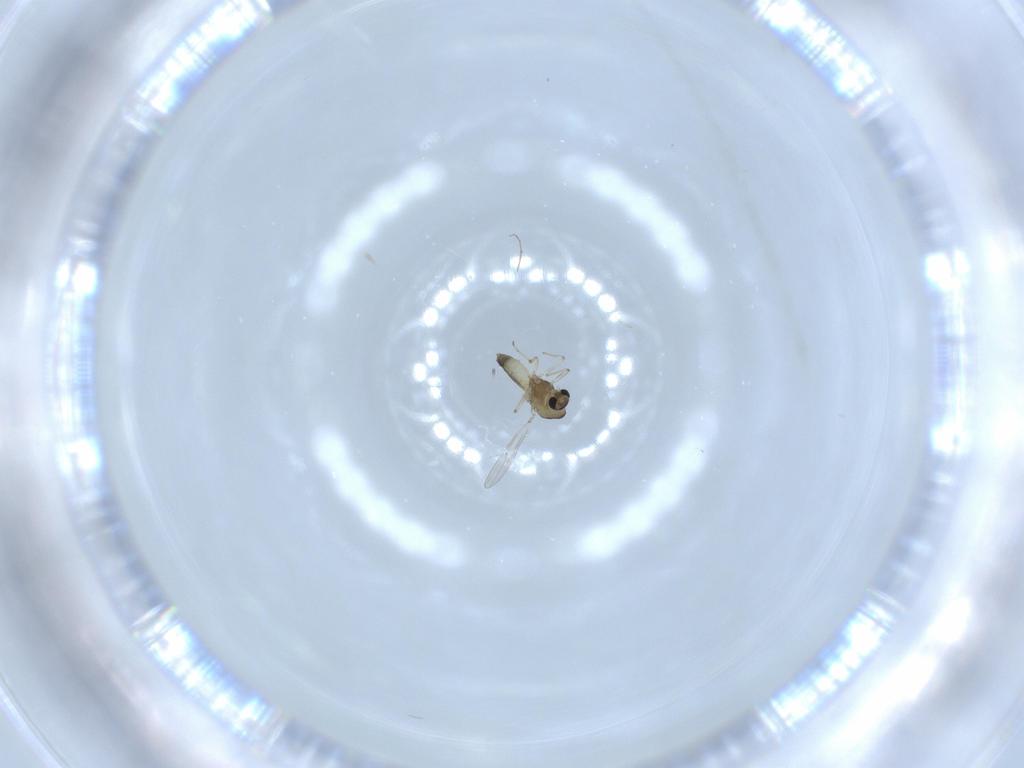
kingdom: Animalia
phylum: Arthropoda
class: Insecta
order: Diptera
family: Chironomidae
